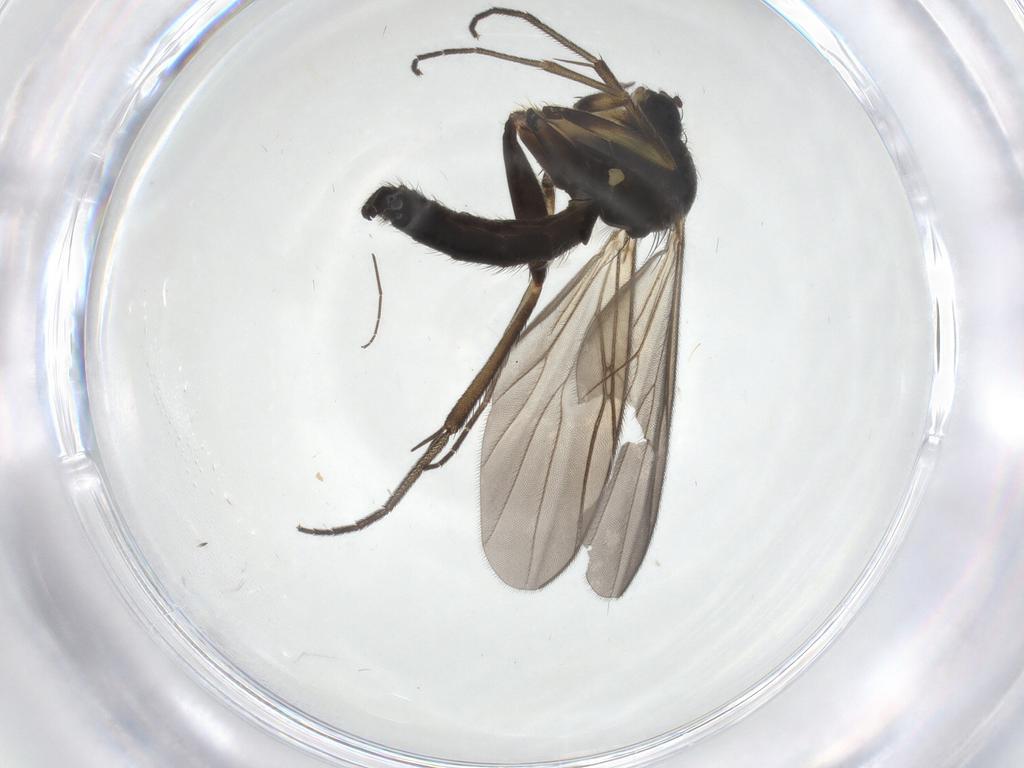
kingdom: Animalia
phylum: Arthropoda
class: Insecta
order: Diptera
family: Mycetophilidae
